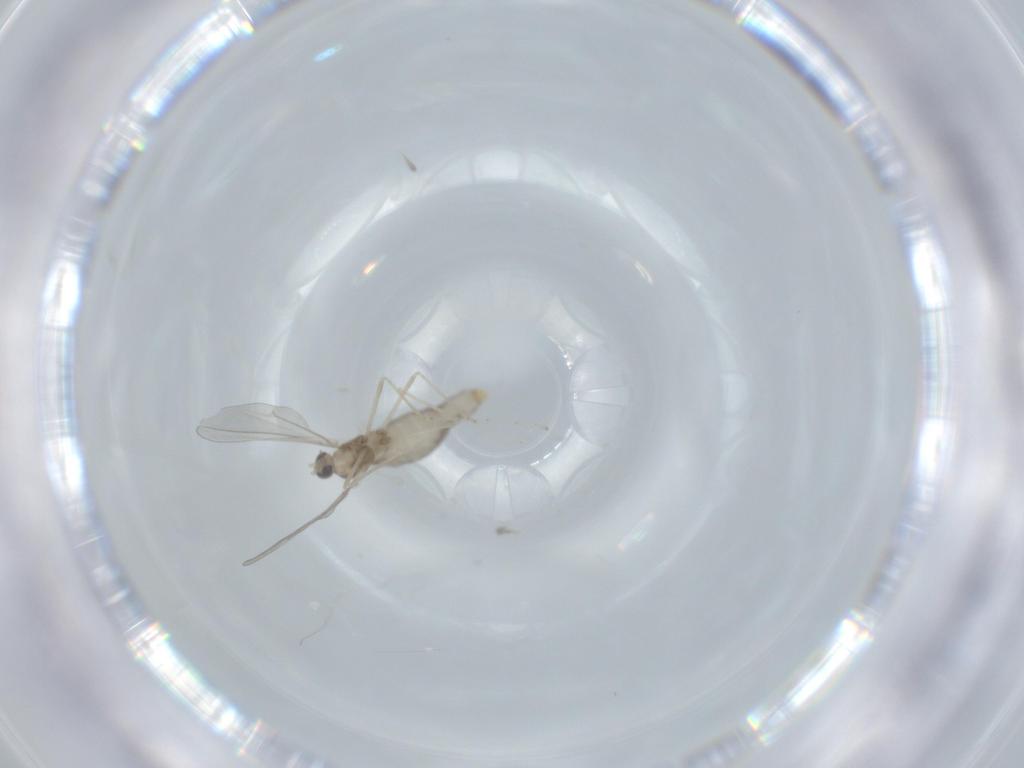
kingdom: Animalia
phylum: Arthropoda
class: Insecta
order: Diptera
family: Cecidomyiidae
